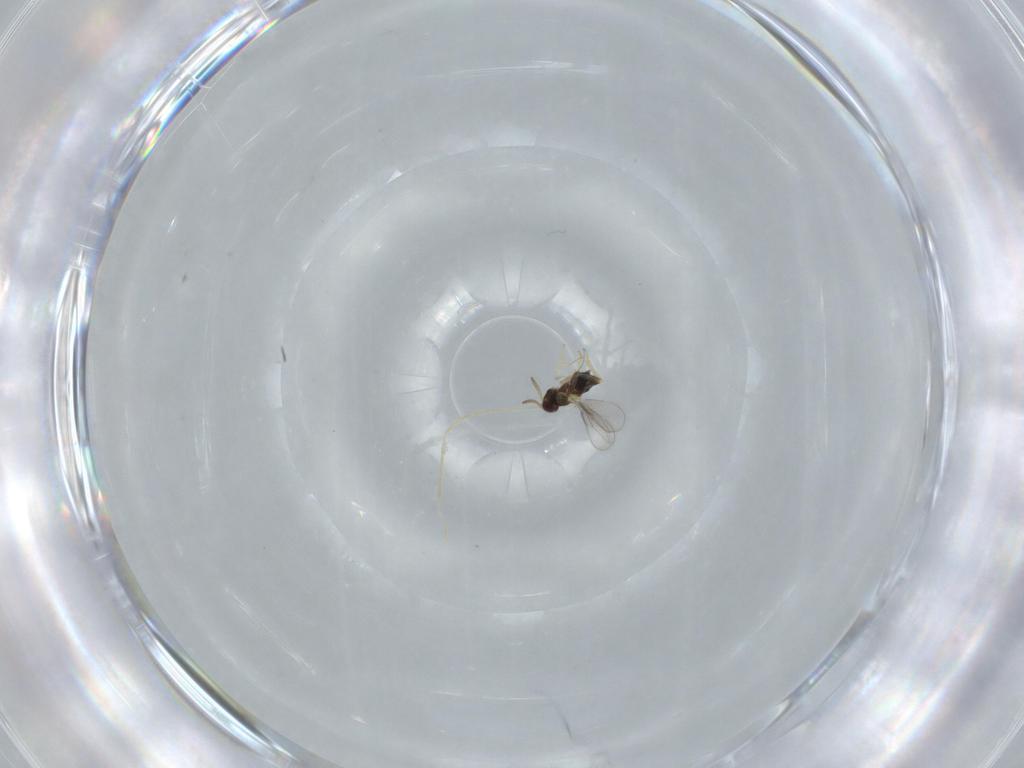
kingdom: Animalia
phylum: Arthropoda
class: Insecta
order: Hymenoptera
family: Aphelinidae
